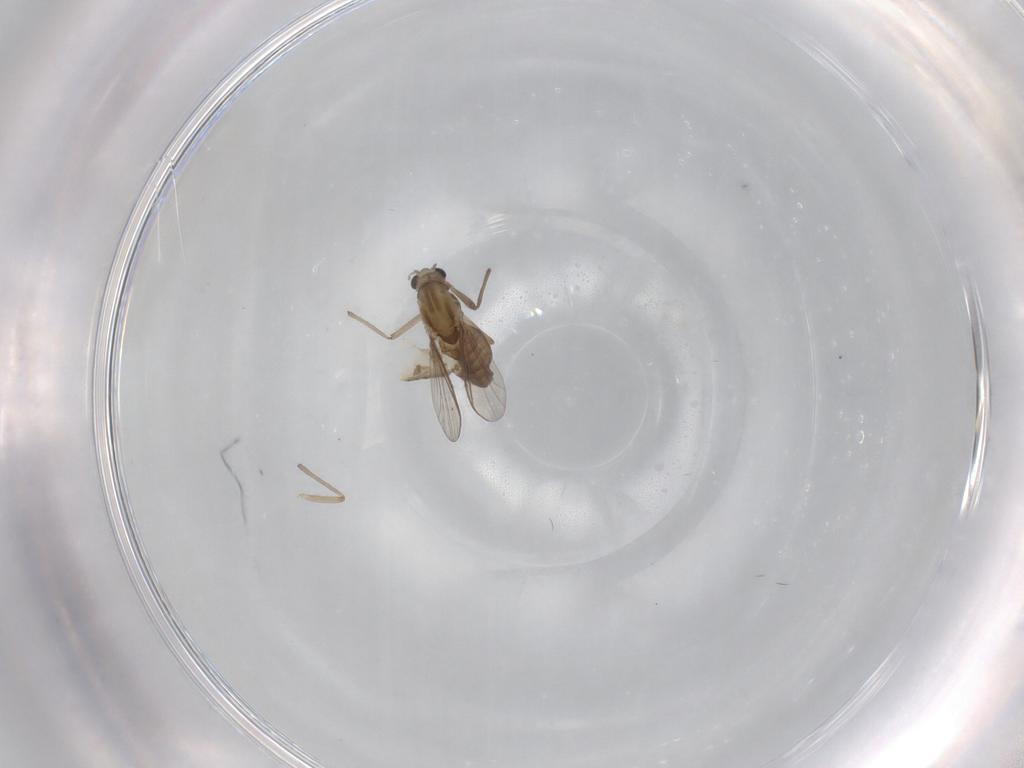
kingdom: Animalia
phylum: Arthropoda
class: Insecta
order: Diptera
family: Chironomidae
